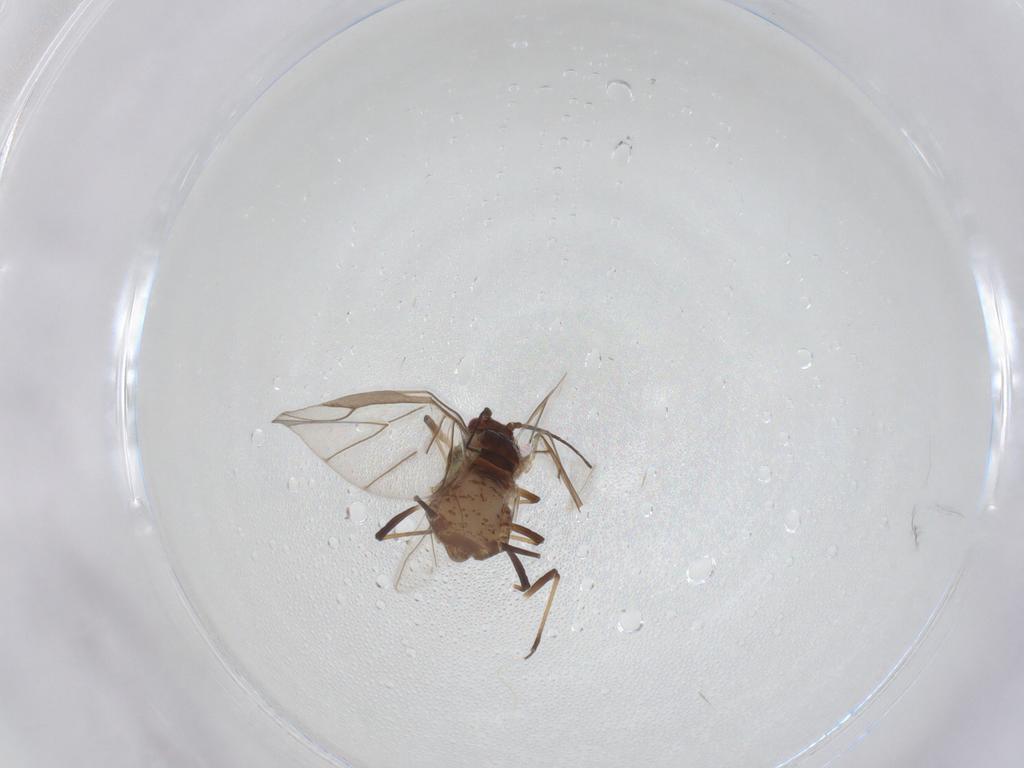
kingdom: Animalia
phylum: Arthropoda
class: Insecta
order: Hemiptera
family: Aphididae
